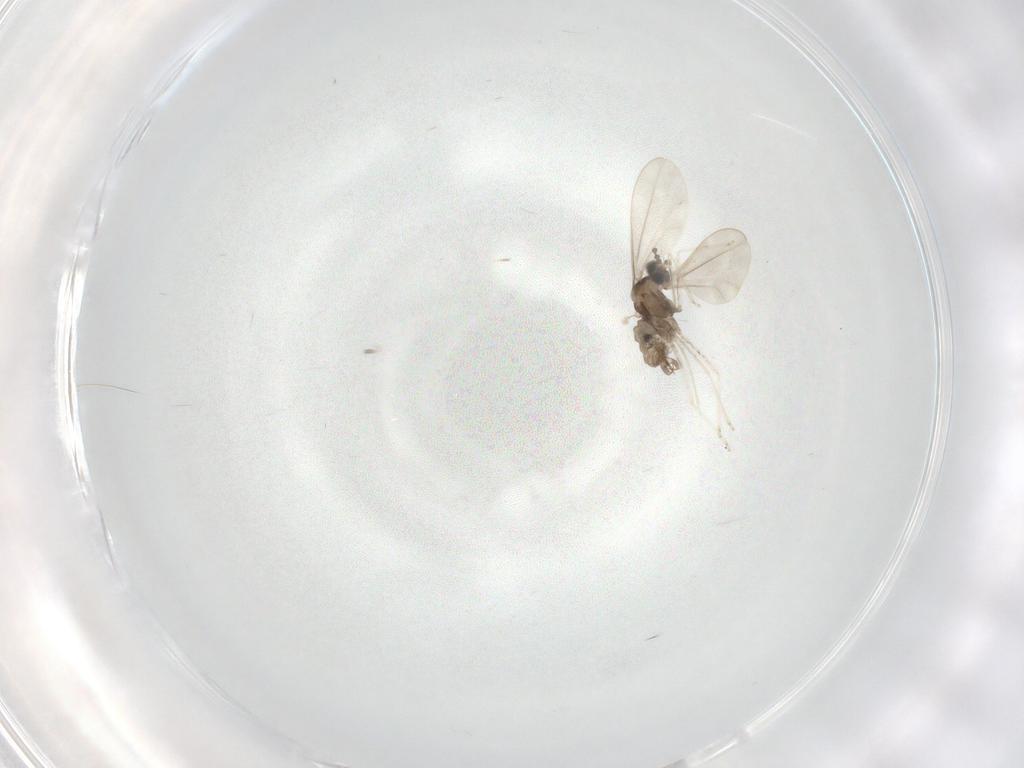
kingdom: Animalia
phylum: Arthropoda
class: Insecta
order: Diptera
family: Cecidomyiidae
